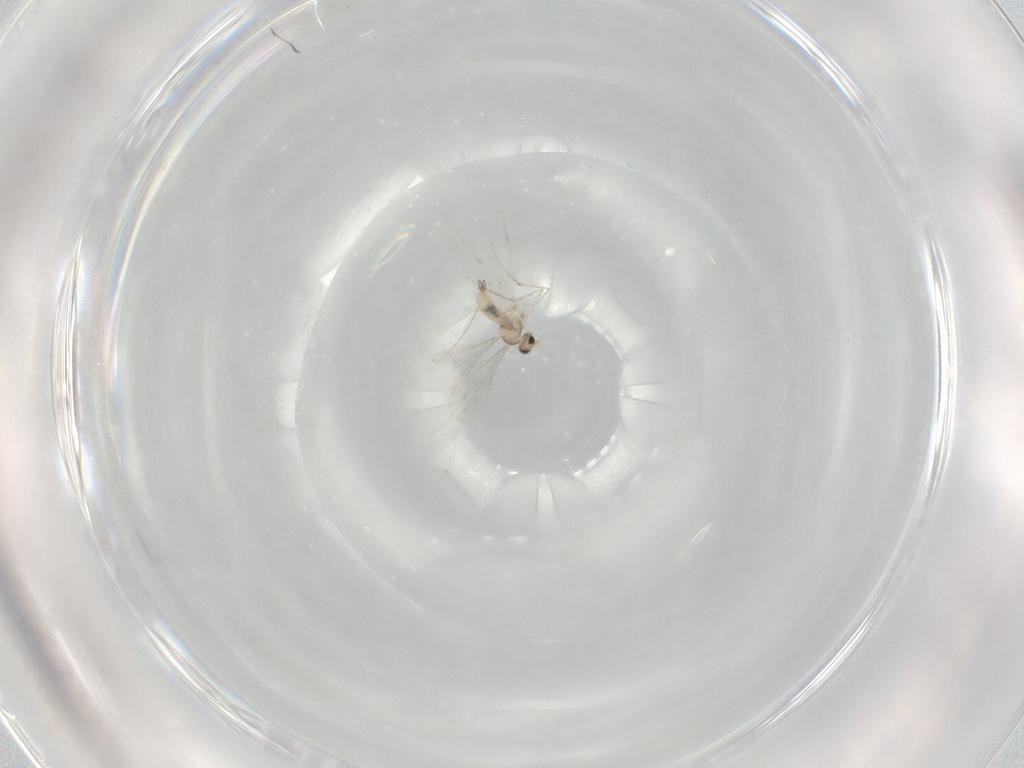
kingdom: Animalia
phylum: Arthropoda
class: Insecta
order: Diptera
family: Cecidomyiidae
